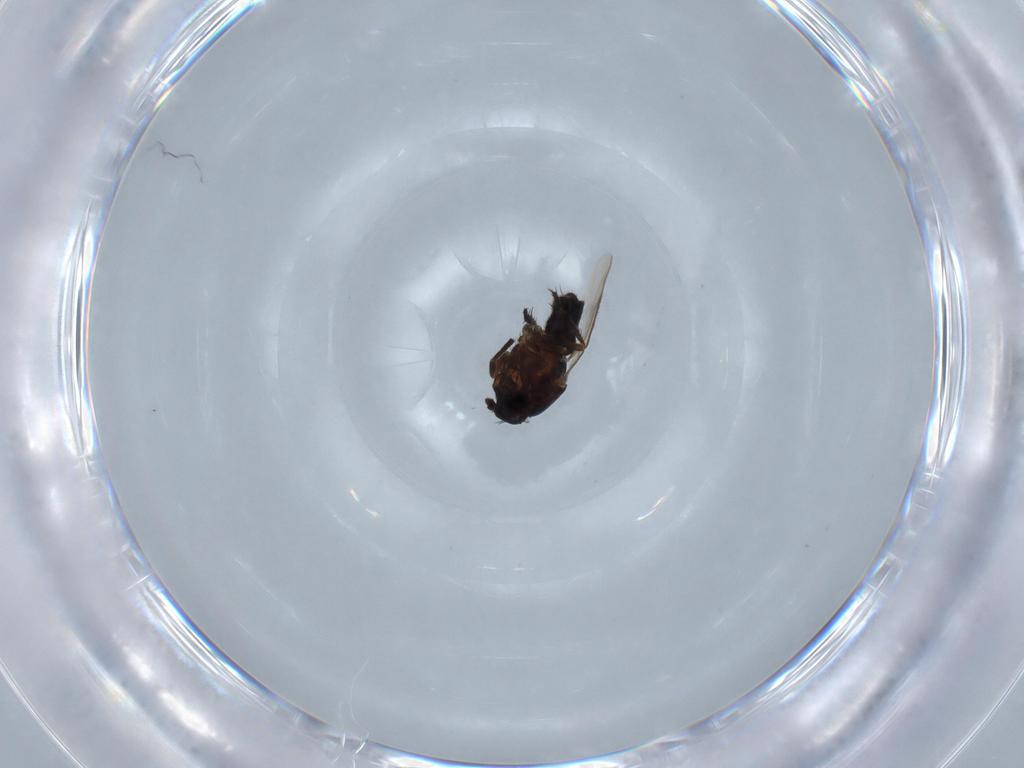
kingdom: Animalia
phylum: Arthropoda
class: Insecta
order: Diptera
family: Sphaeroceridae
